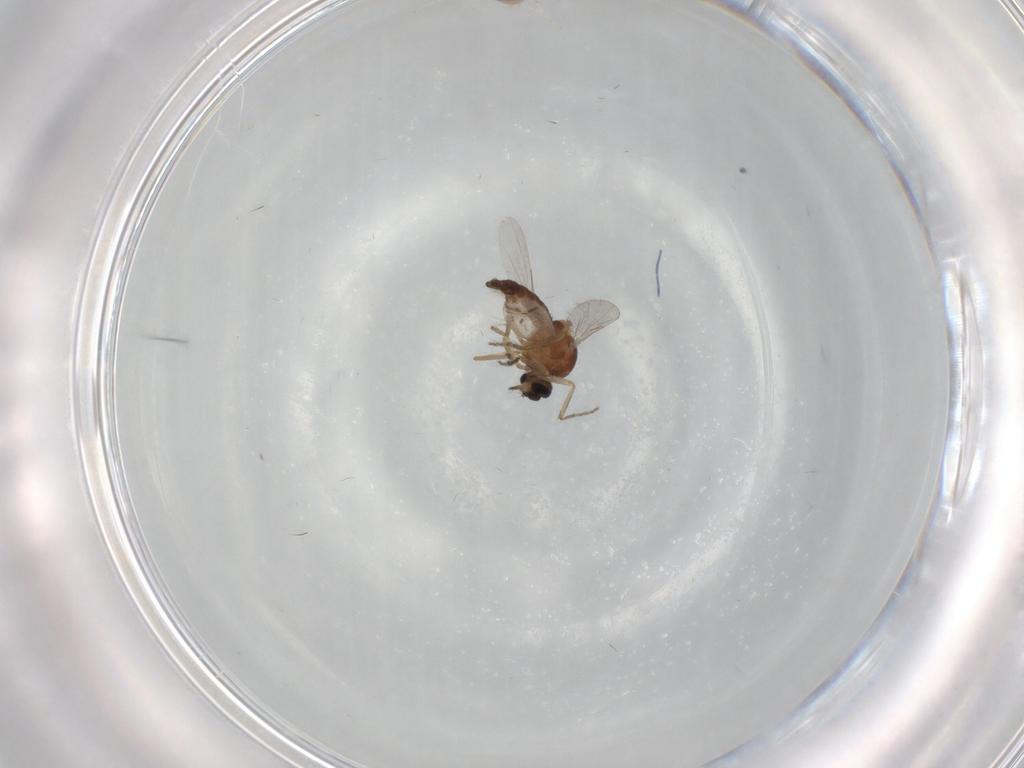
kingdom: Animalia
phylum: Arthropoda
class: Insecta
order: Diptera
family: Ceratopogonidae
